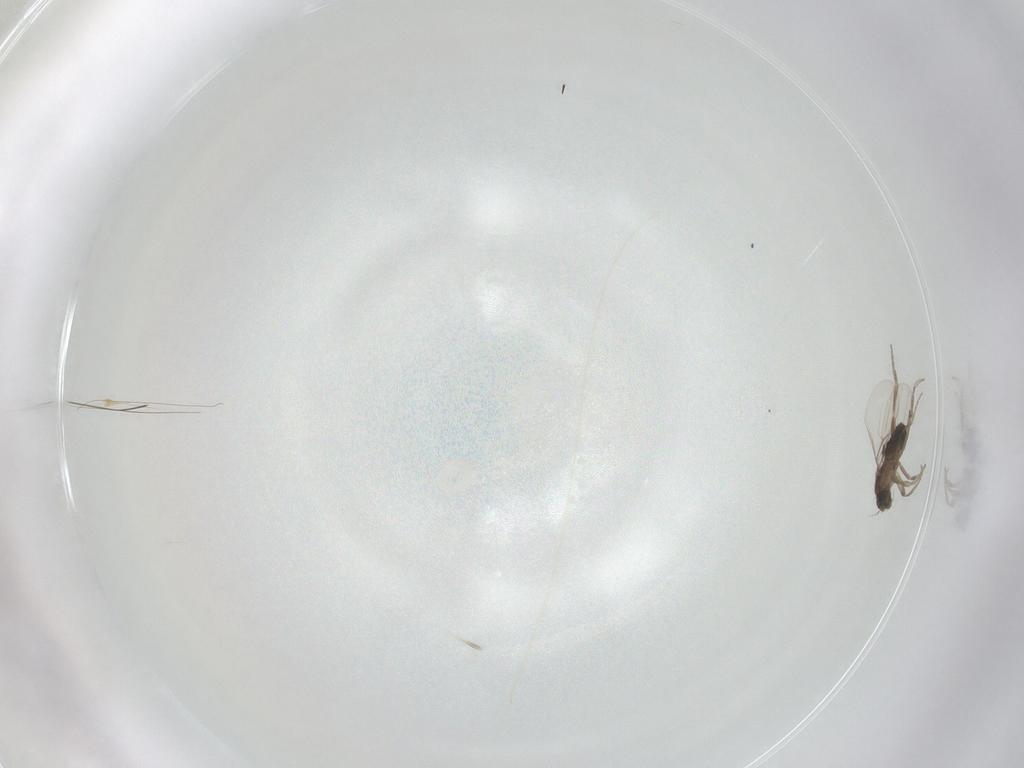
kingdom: Animalia
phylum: Arthropoda
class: Insecta
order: Diptera
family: Chironomidae
